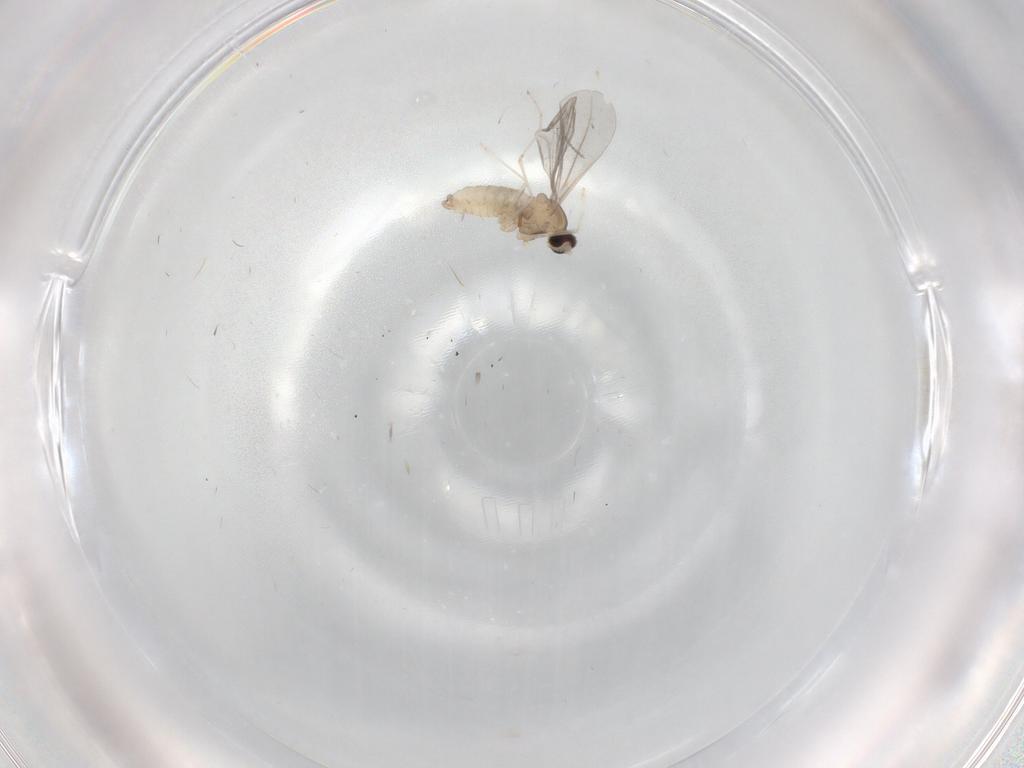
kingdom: Animalia
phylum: Arthropoda
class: Insecta
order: Diptera
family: Cecidomyiidae
